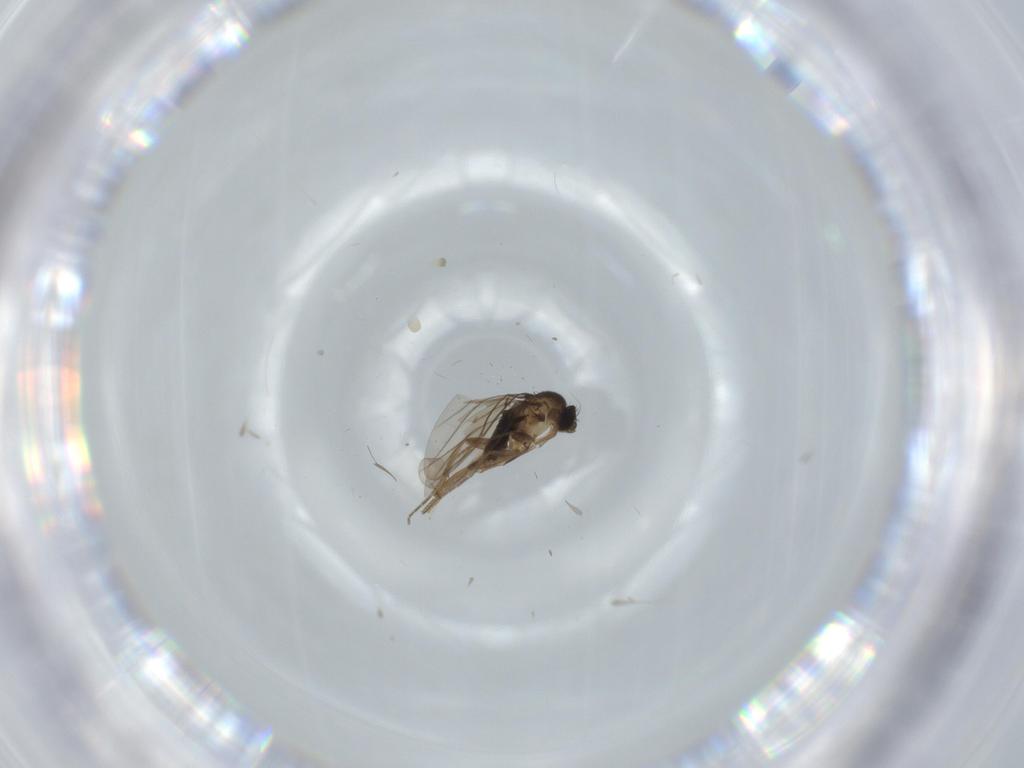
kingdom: Animalia
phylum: Arthropoda
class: Insecta
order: Diptera
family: Phoridae
